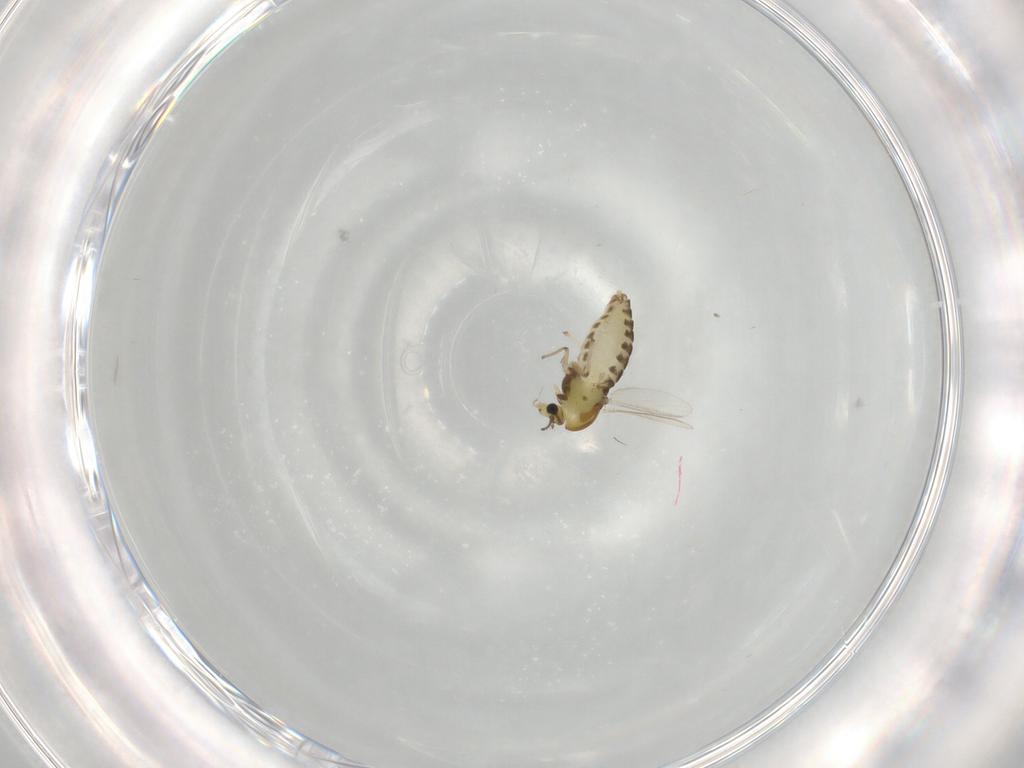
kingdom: Animalia
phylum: Arthropoda
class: Insecta
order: Diptera
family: Chironomidae
